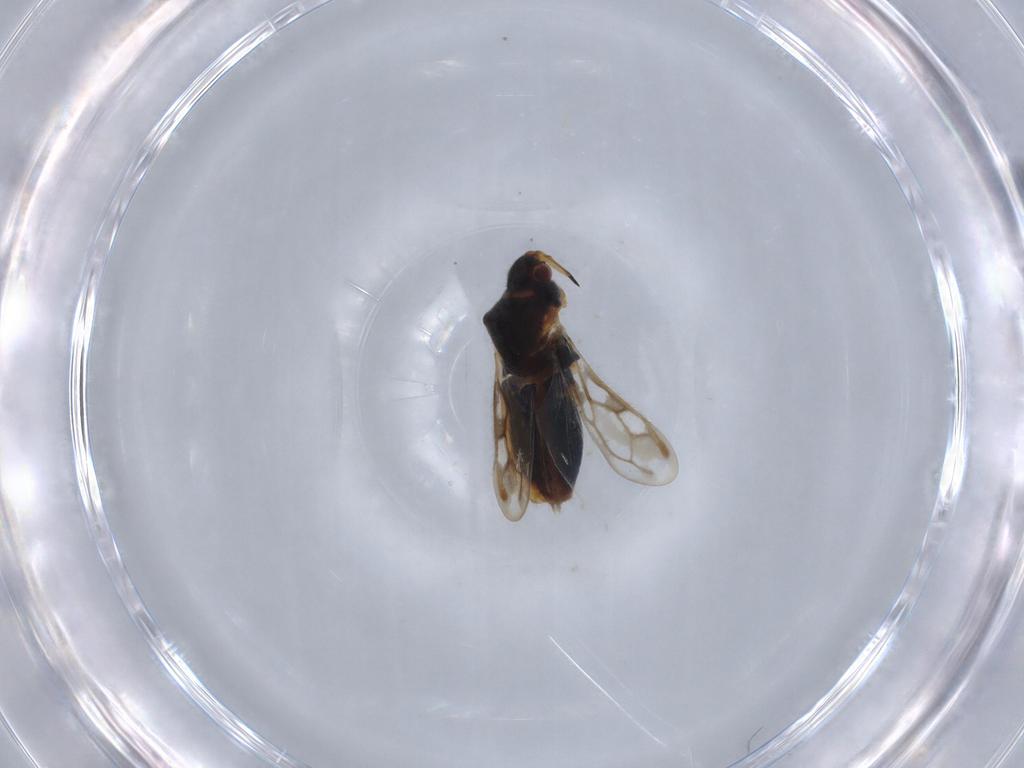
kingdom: Animalia
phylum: Arthropoda
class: Insecta
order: Hemiptera
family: Veliidae
